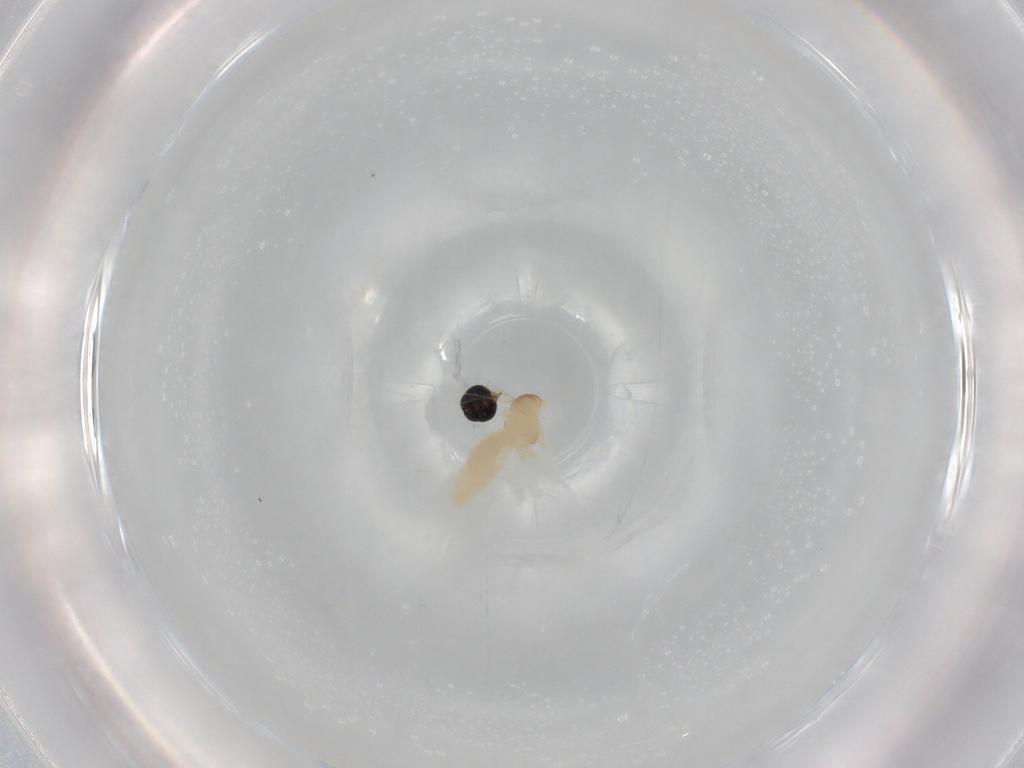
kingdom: Animalia
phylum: Arthropoda
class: Insecta
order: Diptera
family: Cecidomyiidae
